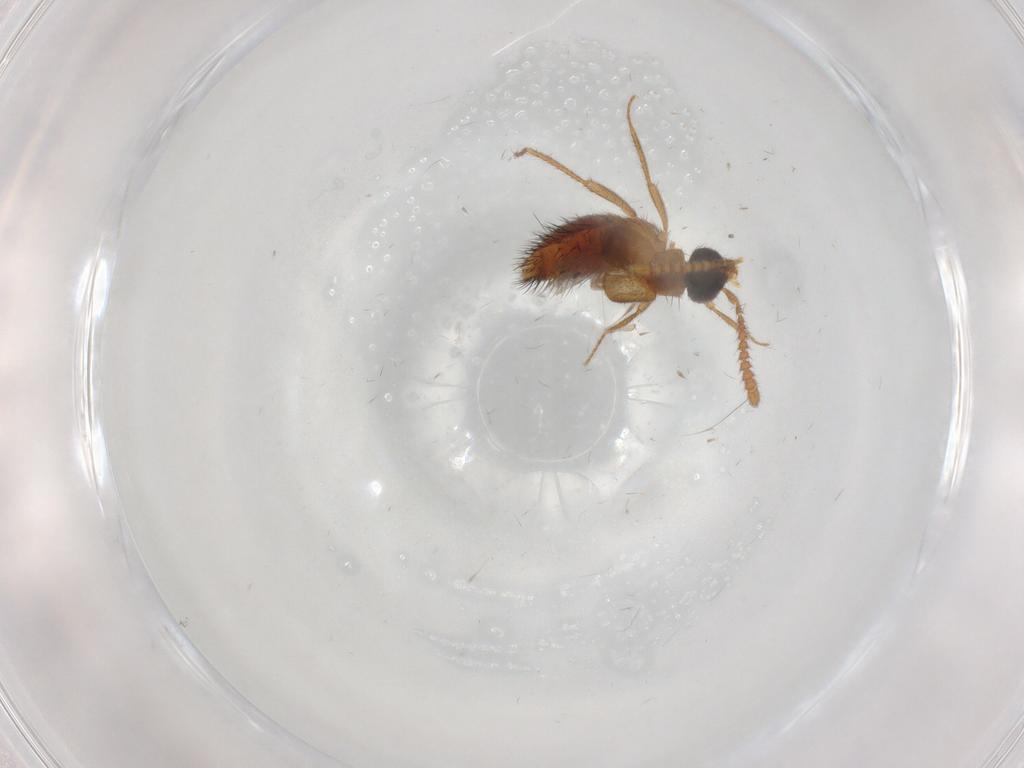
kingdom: Animalia
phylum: Arthropoda
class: Insecta
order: Coleoptera
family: Staphylinidae
